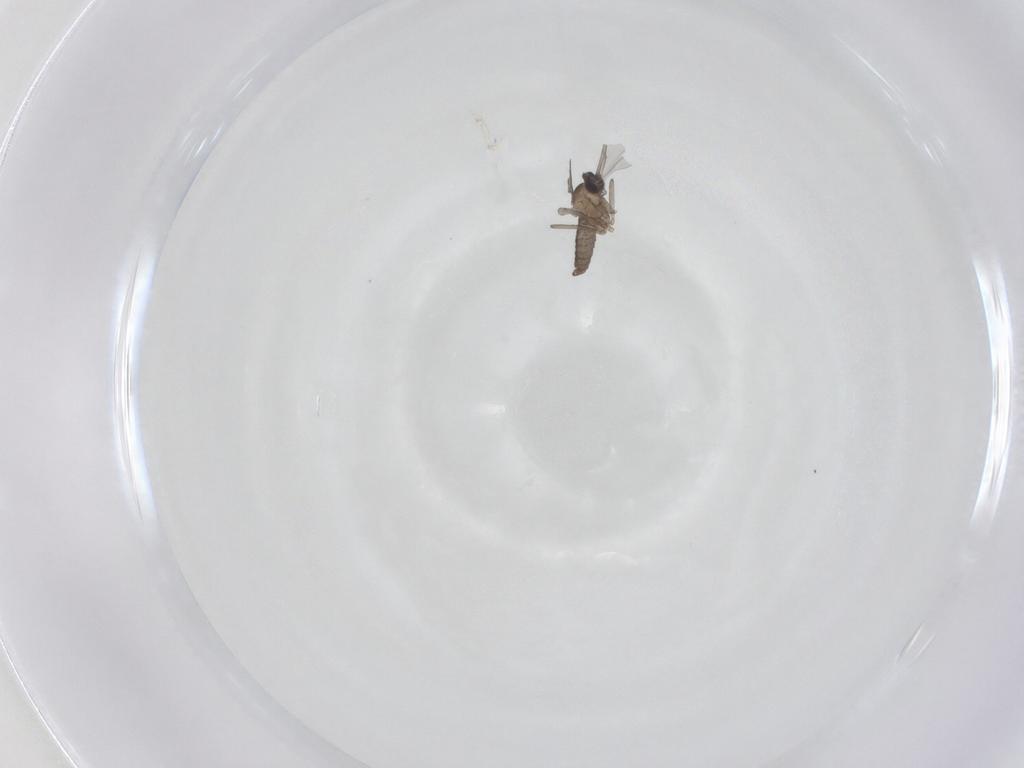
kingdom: Animalia
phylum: Arthropoda
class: Insecta
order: Diptera
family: Cecidomyiidae
